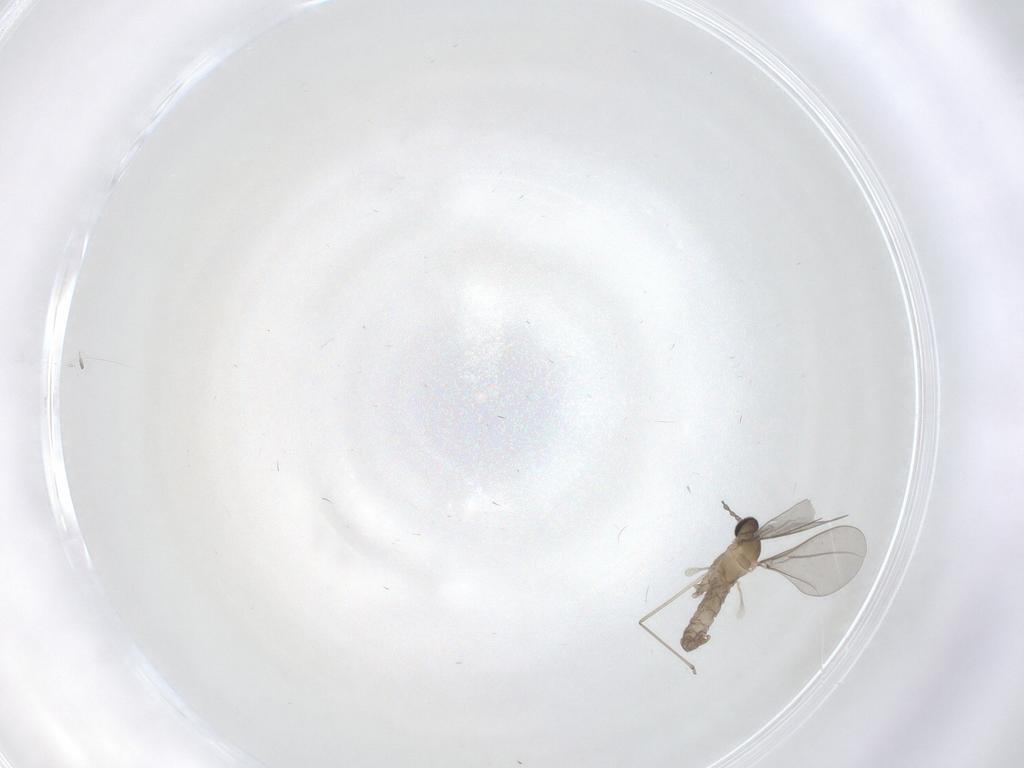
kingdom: Animalia
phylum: Arthropoda
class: Insecta
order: Diptera
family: Cecidomyiidae
